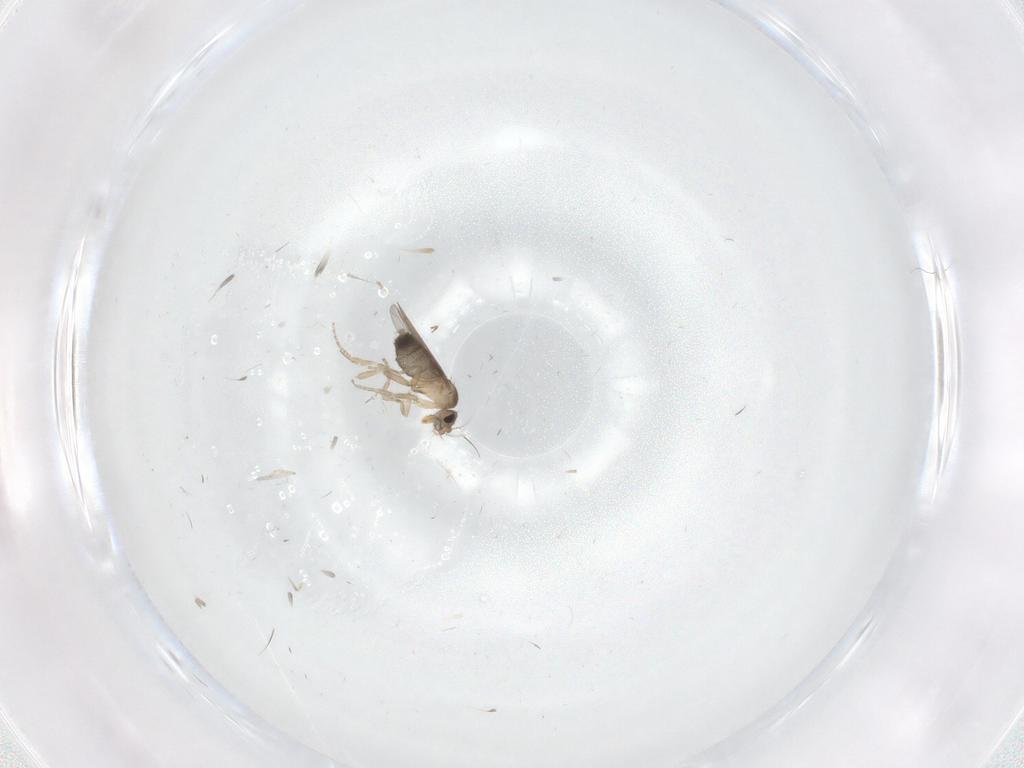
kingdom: Animalia
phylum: Arthropoda
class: Insecta
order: Diptera
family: Cecidomyiidae
